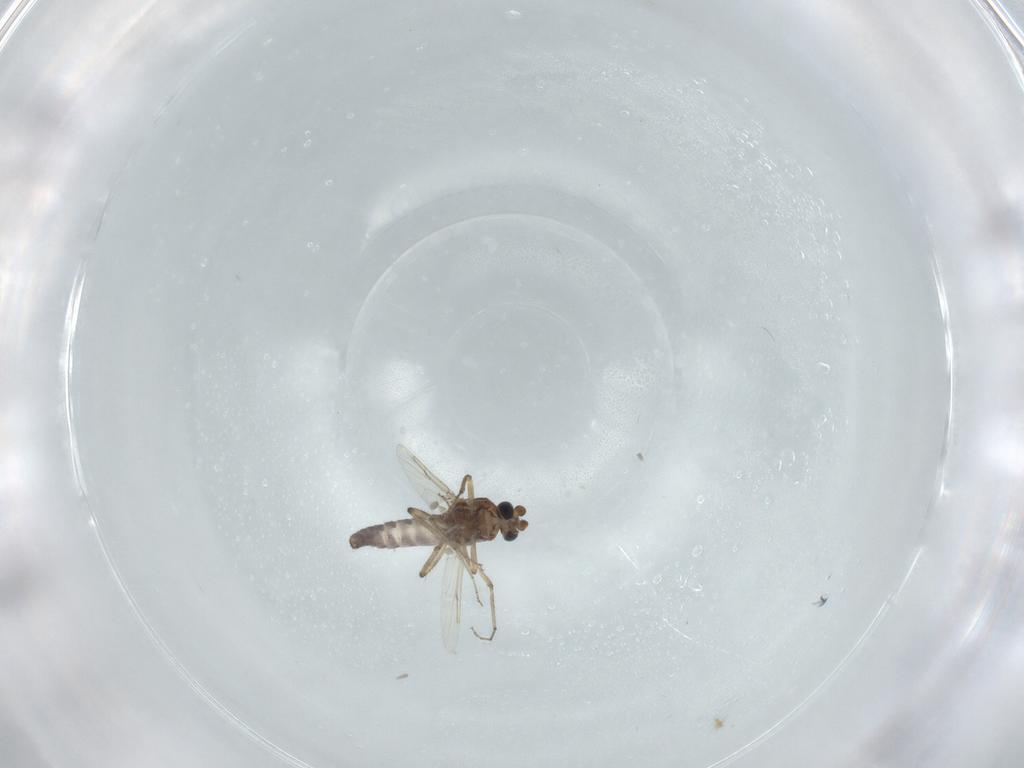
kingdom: Animalia
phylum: Arthropoda
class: Insecta
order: Diptera
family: Ceratopogonidae
